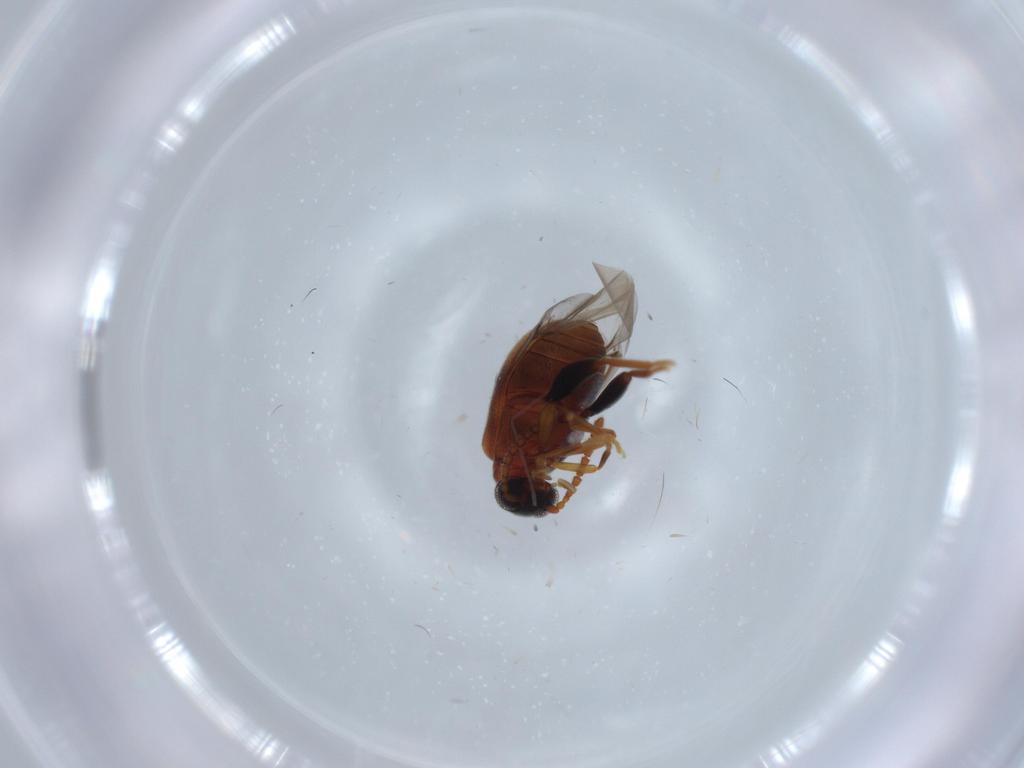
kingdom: Animalia
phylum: Arthropoda
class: Insecta
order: Coleoptera
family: Aderidae
